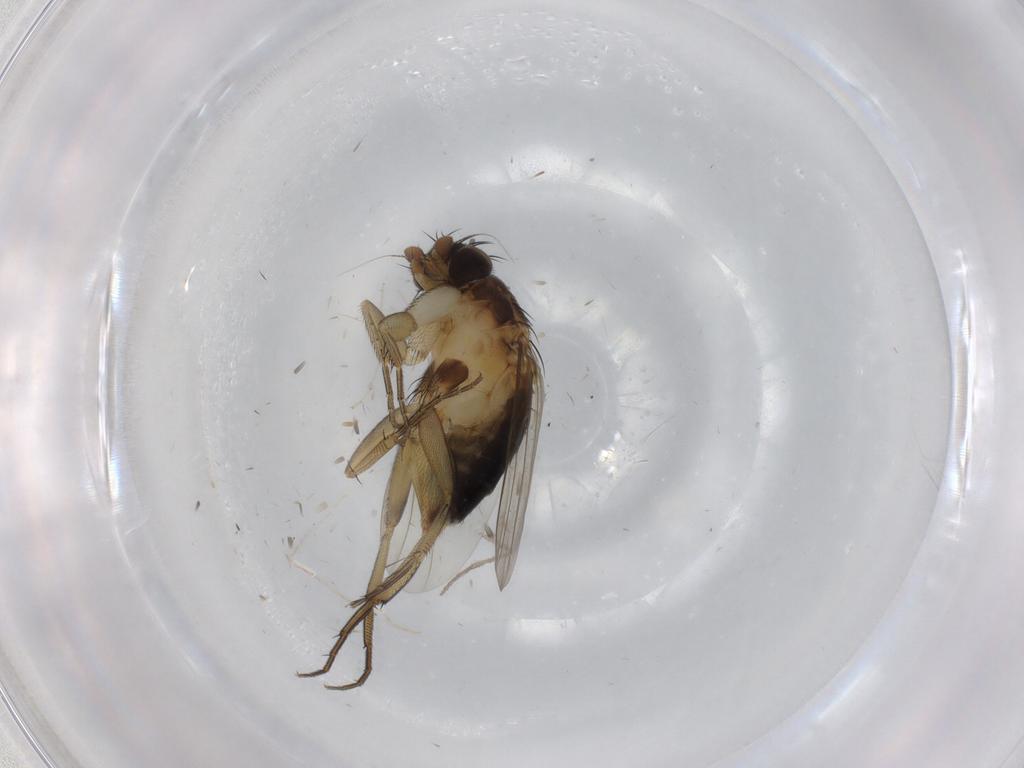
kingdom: Animalia
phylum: Arthropoda
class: Insecta
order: Diptera
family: Phoridae
